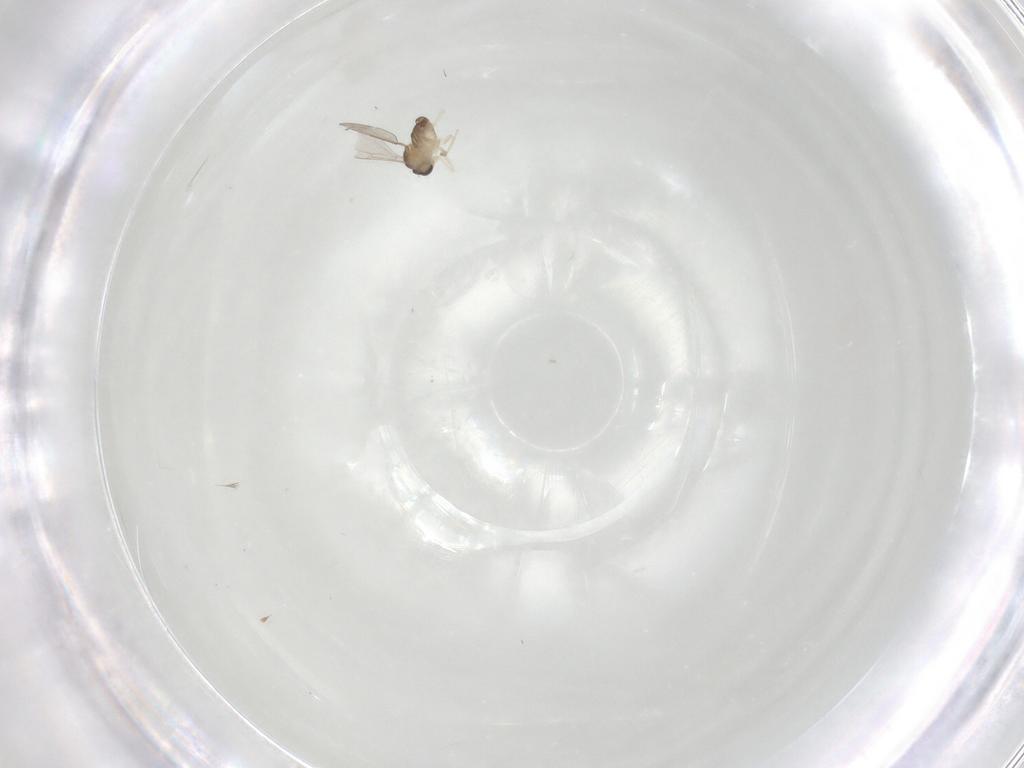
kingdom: Animalia
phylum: Arthropoda
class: Insecta
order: Diptera
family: Cecidomyiidae
